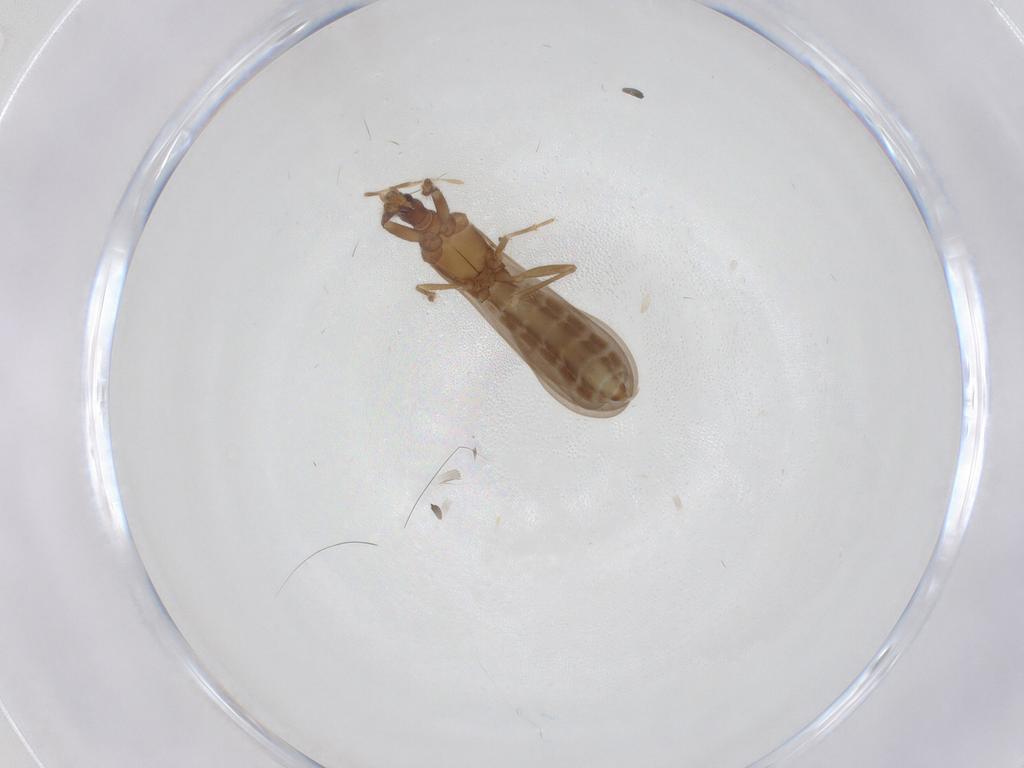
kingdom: Animalia
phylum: Arthropoda
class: Insecta
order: Hemiptera
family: Enicocephalidae
